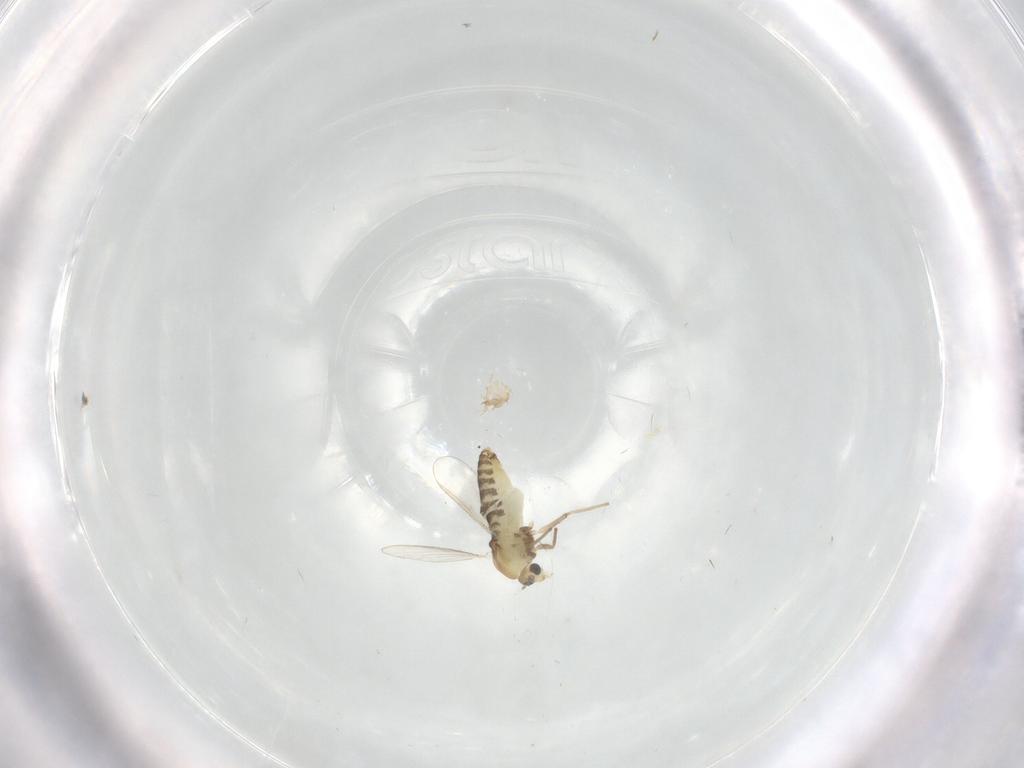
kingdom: Animalia
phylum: Arthropoda
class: Insecta
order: Diptera
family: Chironomidae
